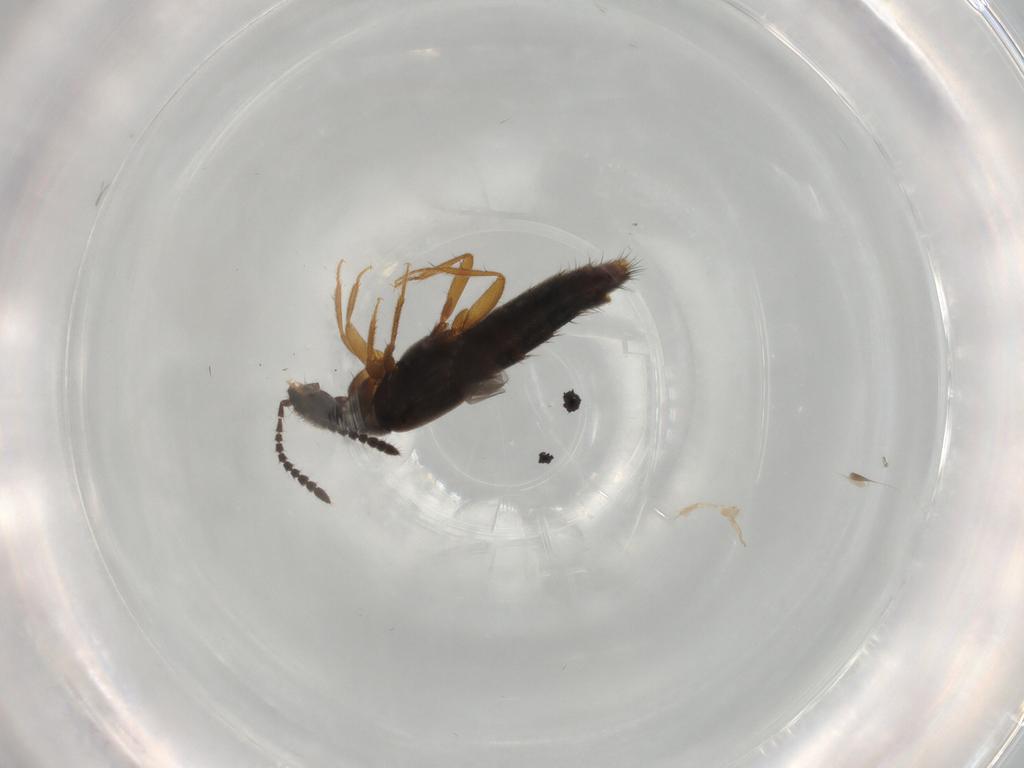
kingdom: Animalia
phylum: Arthropoda
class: Insecta
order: Coleoptera
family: Staphylinidae
